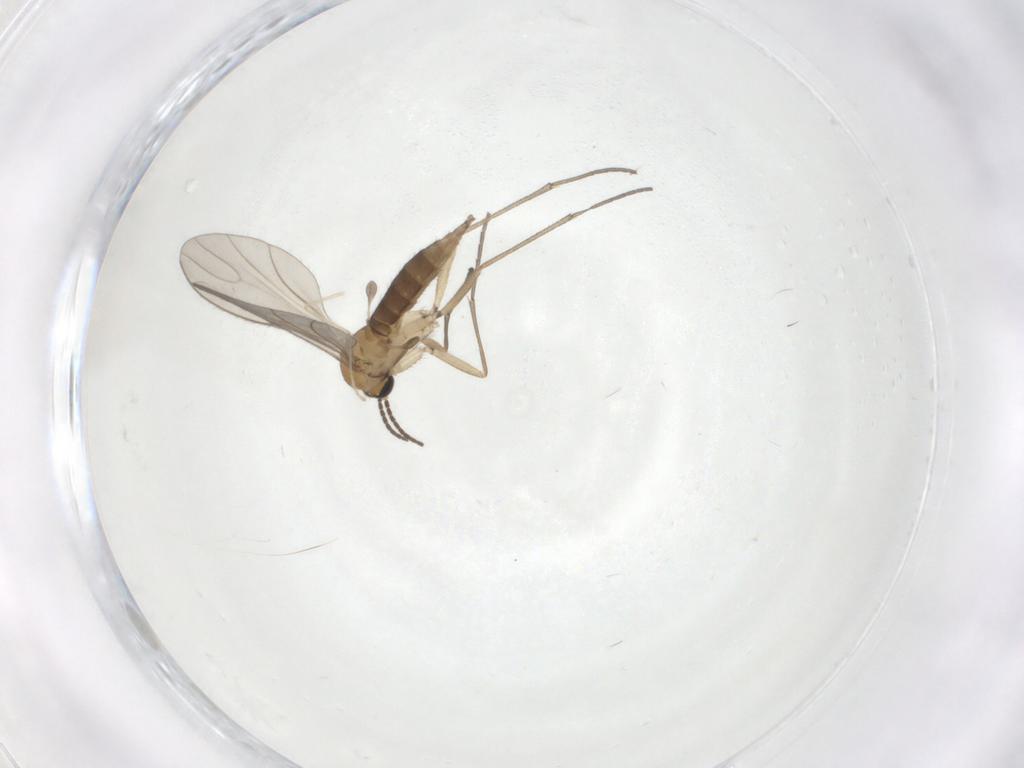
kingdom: Animalia
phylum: Arthropoda
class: Insecta
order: Diptera
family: Sciaridae
